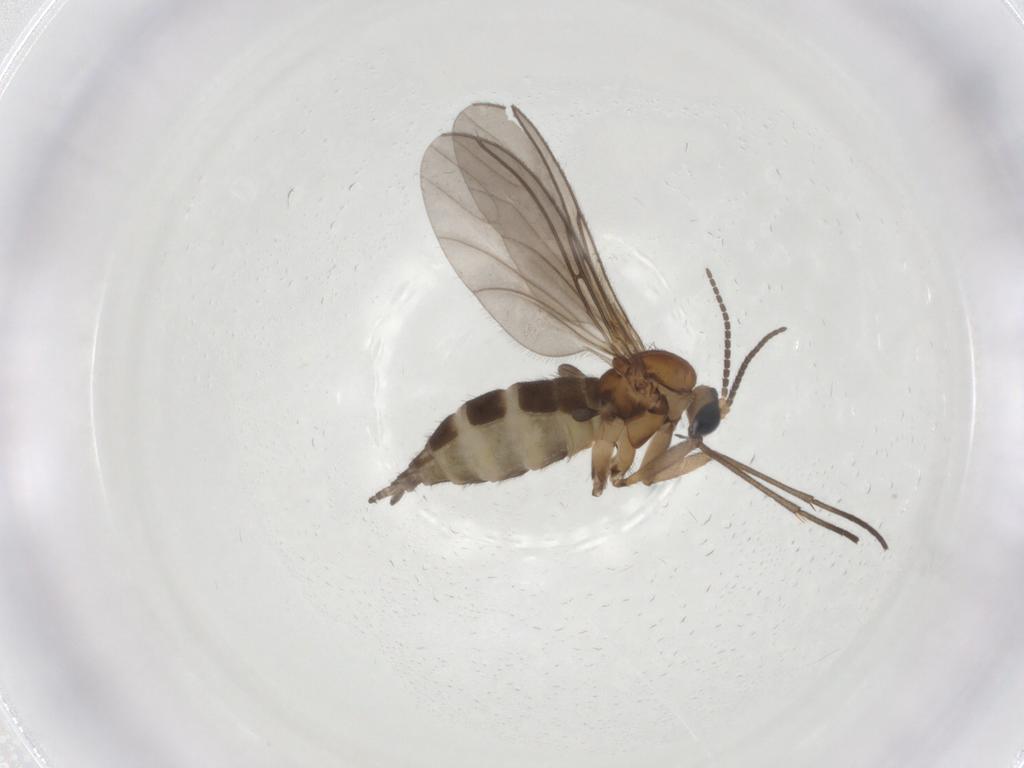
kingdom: Animalia
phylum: Arthropoda
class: Insecta
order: Diptera
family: Sciaridae
